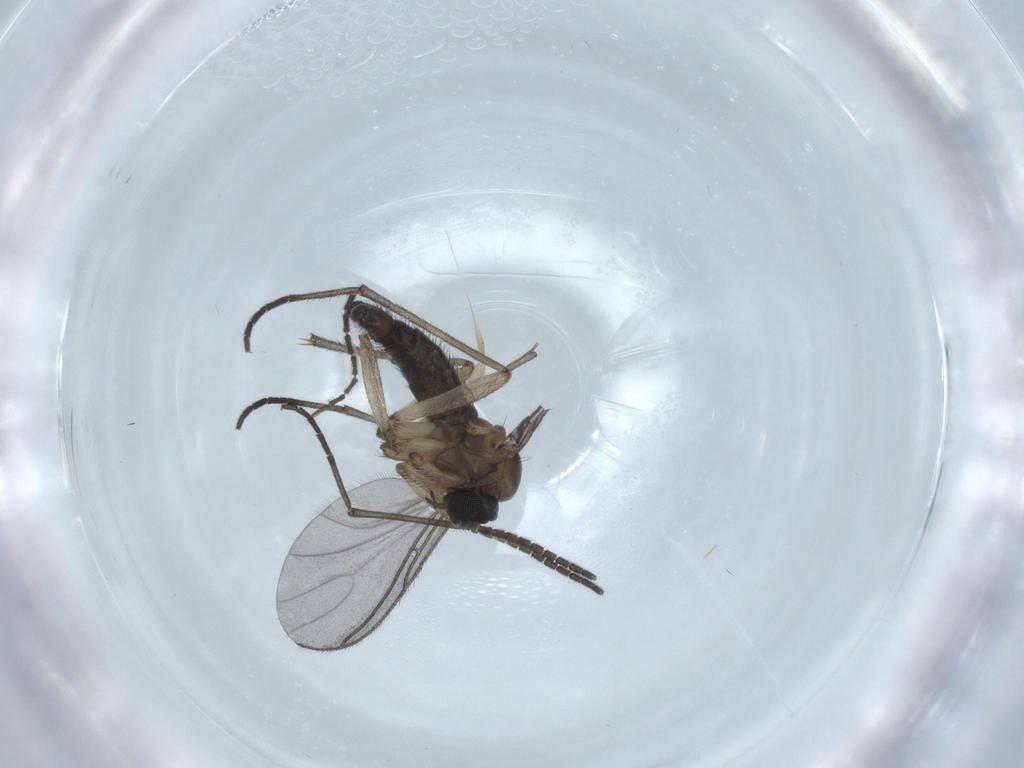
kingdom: Animalia
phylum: Arthropoda
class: Insecta
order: Diptera
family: Sciaridae
